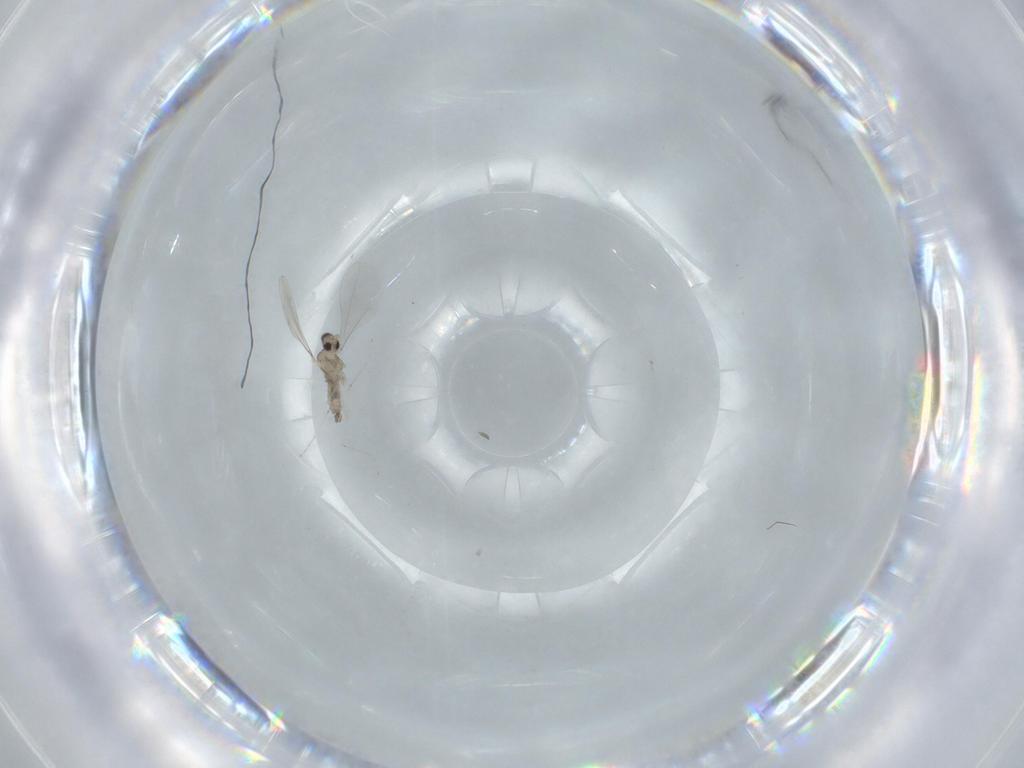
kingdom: Animalia
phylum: Arthropoda
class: Insecta
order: Diptera
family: Cecidomyiidae
